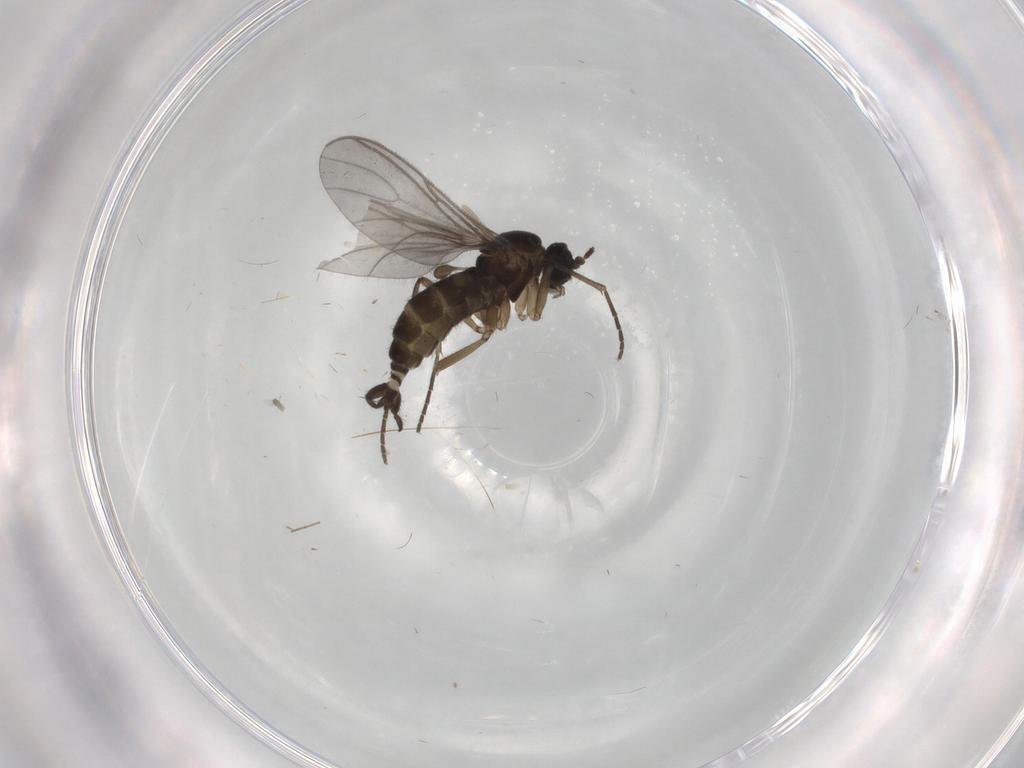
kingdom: Animalia
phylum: Arthropoda
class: Insecta
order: Diptera
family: Sciaridae
